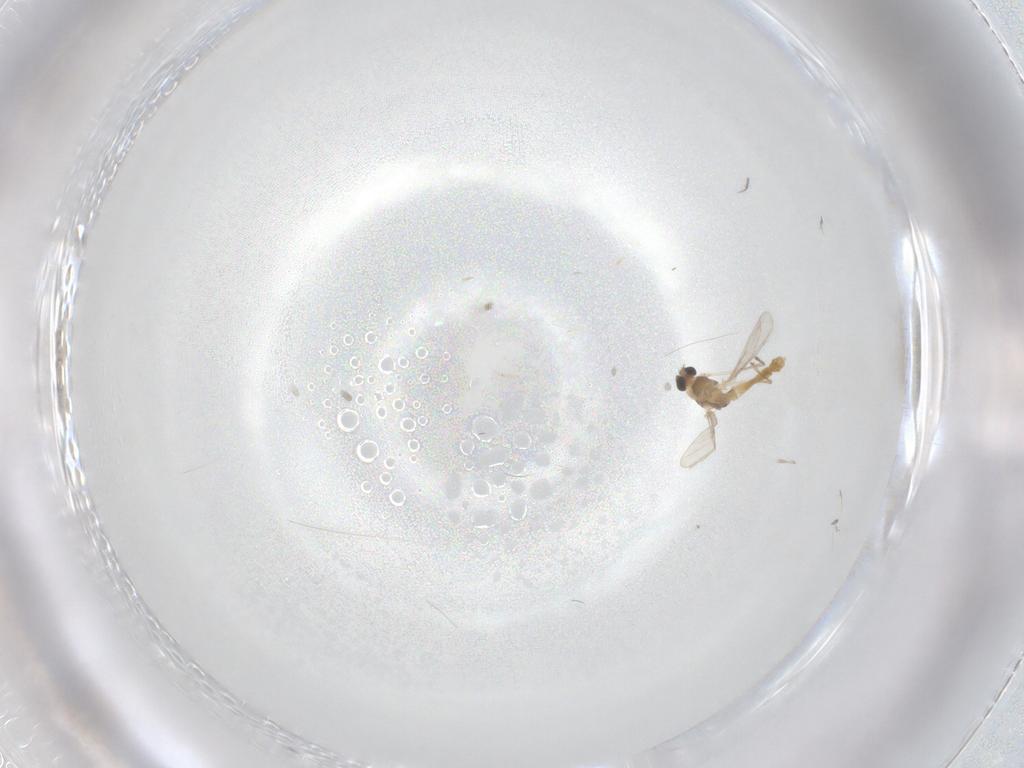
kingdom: Animalia
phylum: Arthropoda
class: Insecta
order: Diptera
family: Chironomidae
